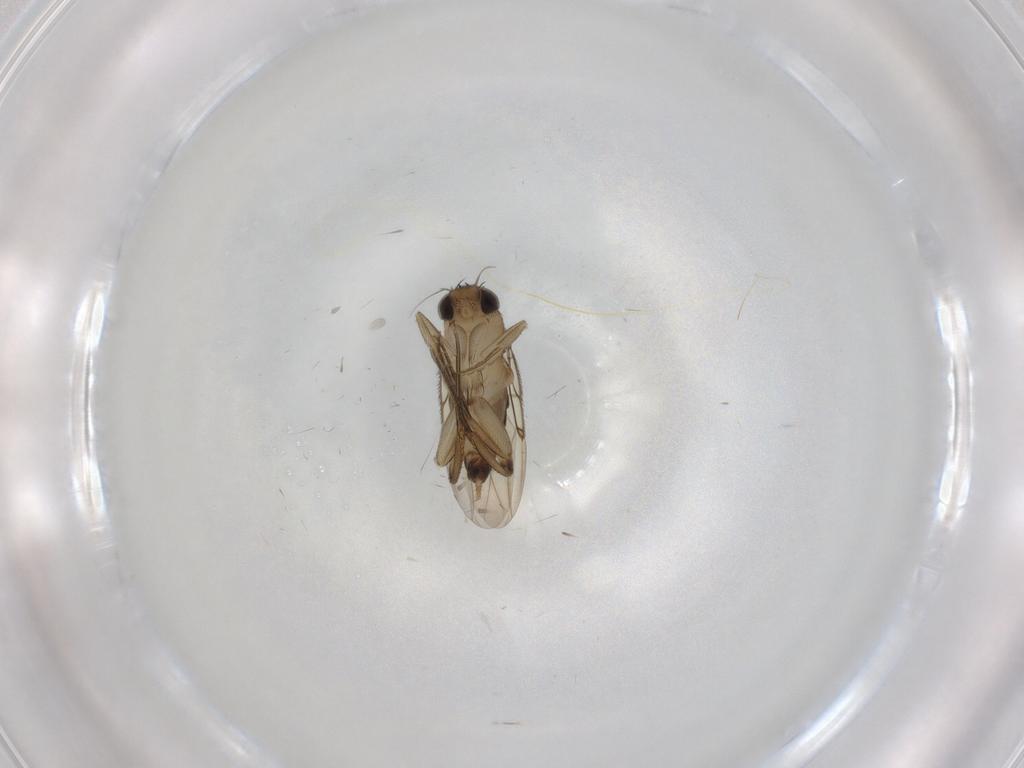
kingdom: Animalia
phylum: Arthropoda
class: Insecta
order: Diptera
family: Phoridae
